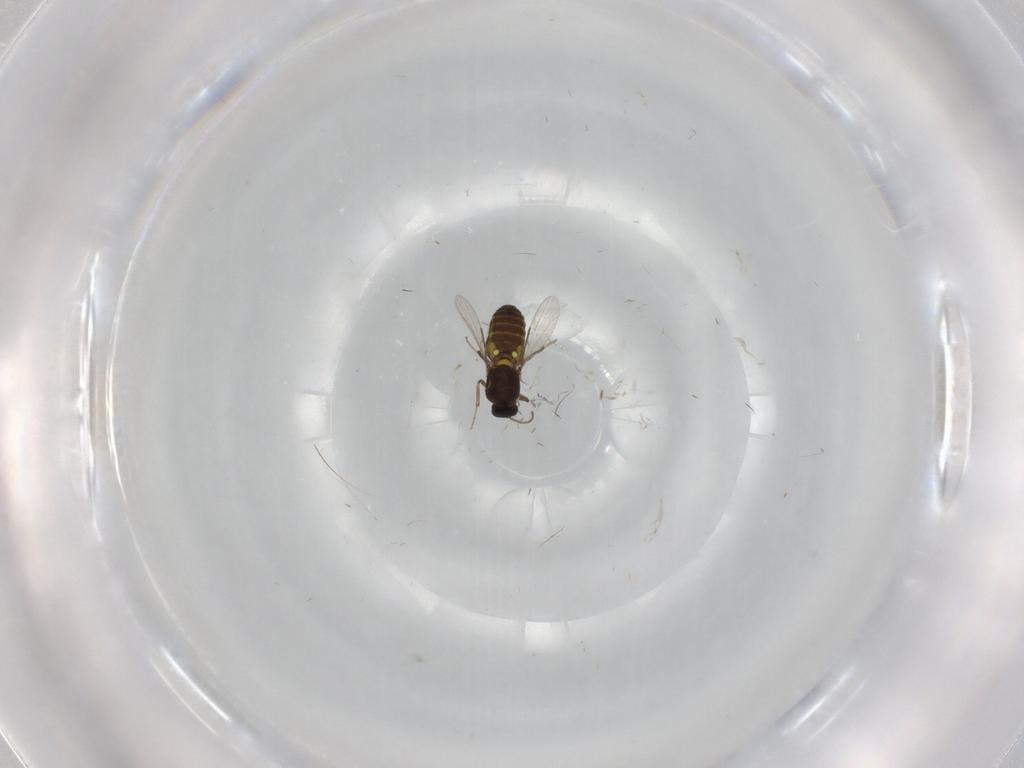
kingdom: Animalia
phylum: Arthropoda
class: Insecta
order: Diptera
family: Ceratopogonidae
